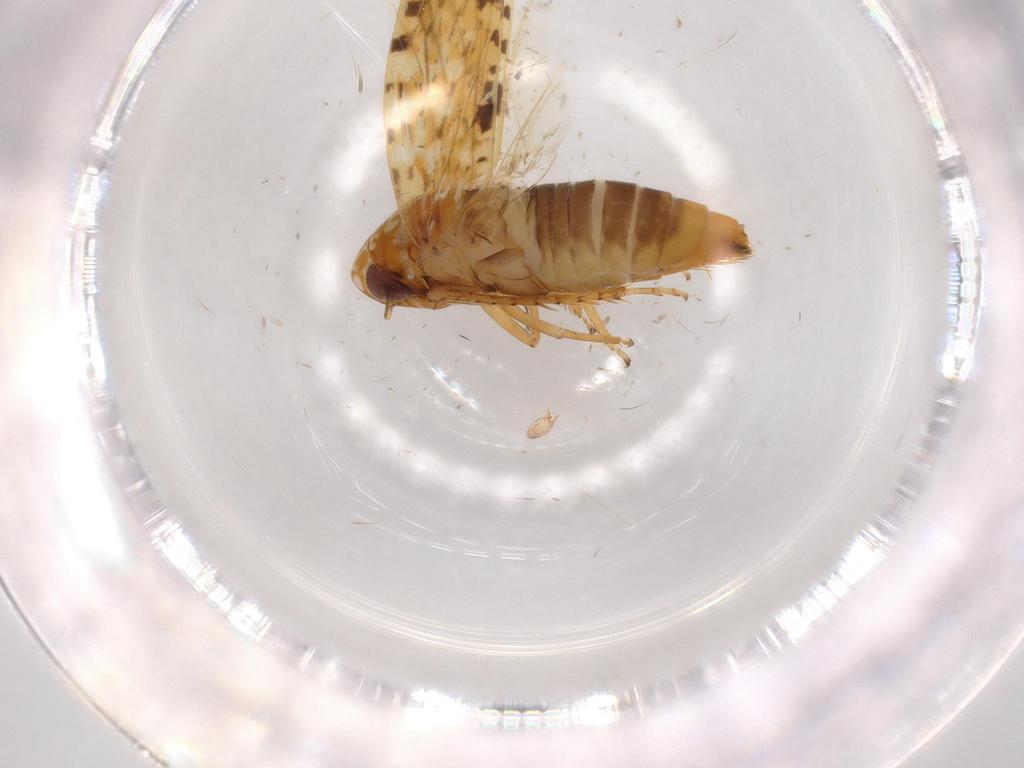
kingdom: Animalia
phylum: Arthropoda
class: Insecta
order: Hemiptera
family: Cicadellidae
